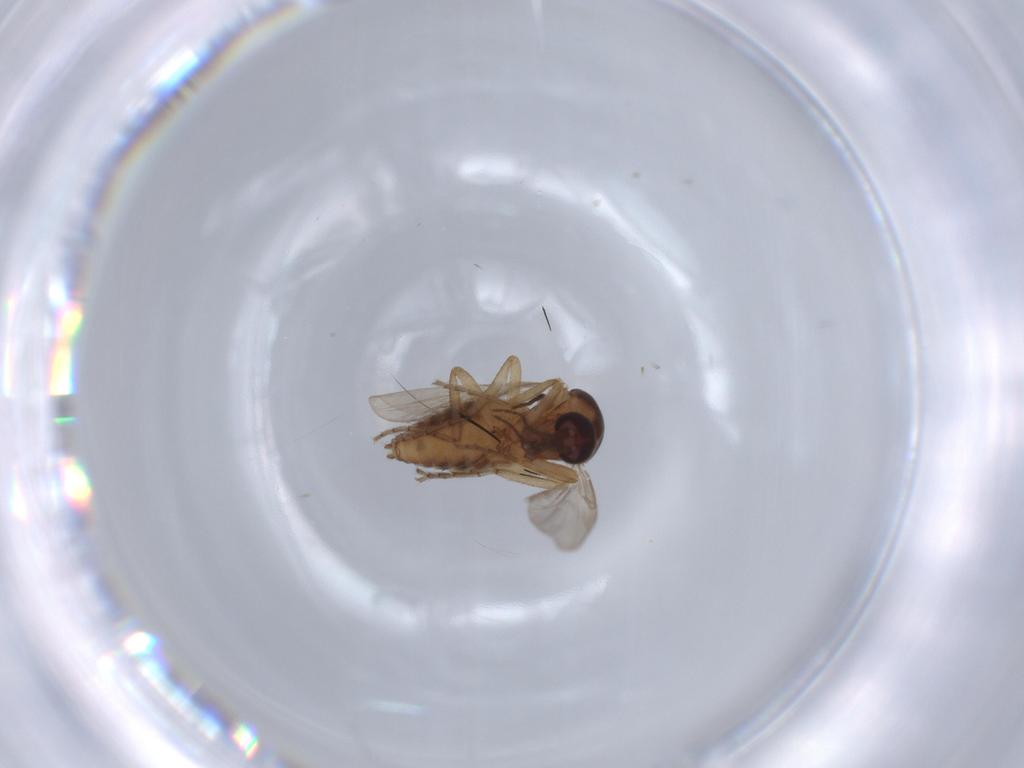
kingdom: Animalia
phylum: Arthropoda
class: Insecta
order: Diptera
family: Ceratopogonidae
